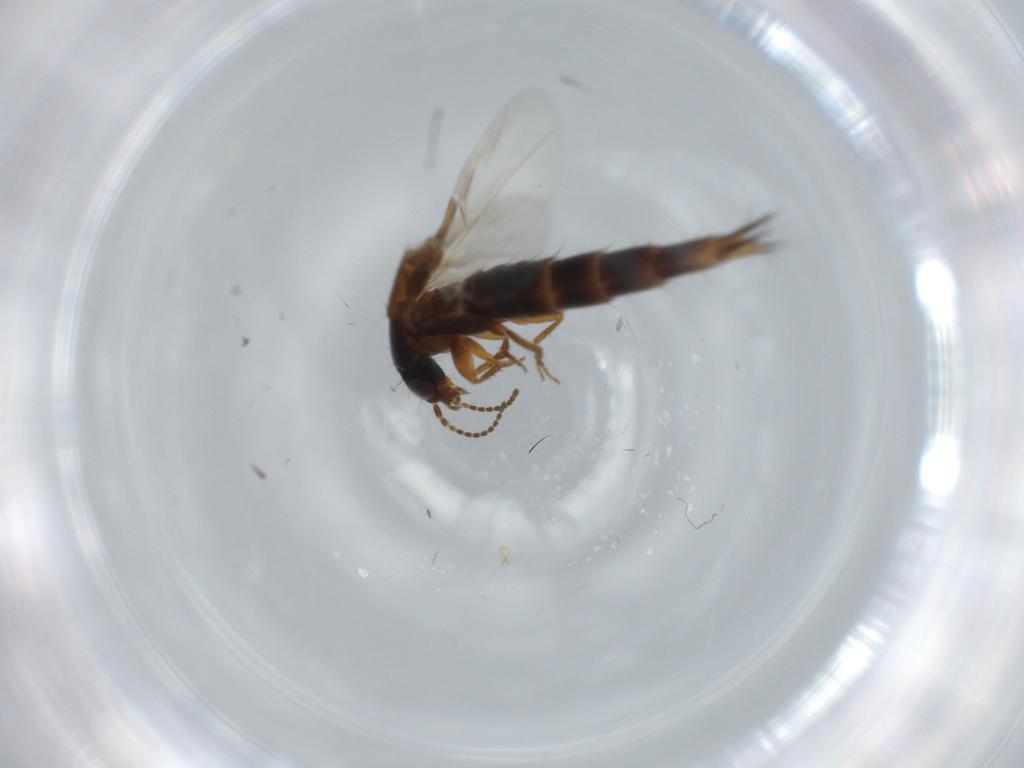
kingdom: Animalia
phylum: Arthropoda
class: Insecta
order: Coleoptera
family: Staphylinidae
